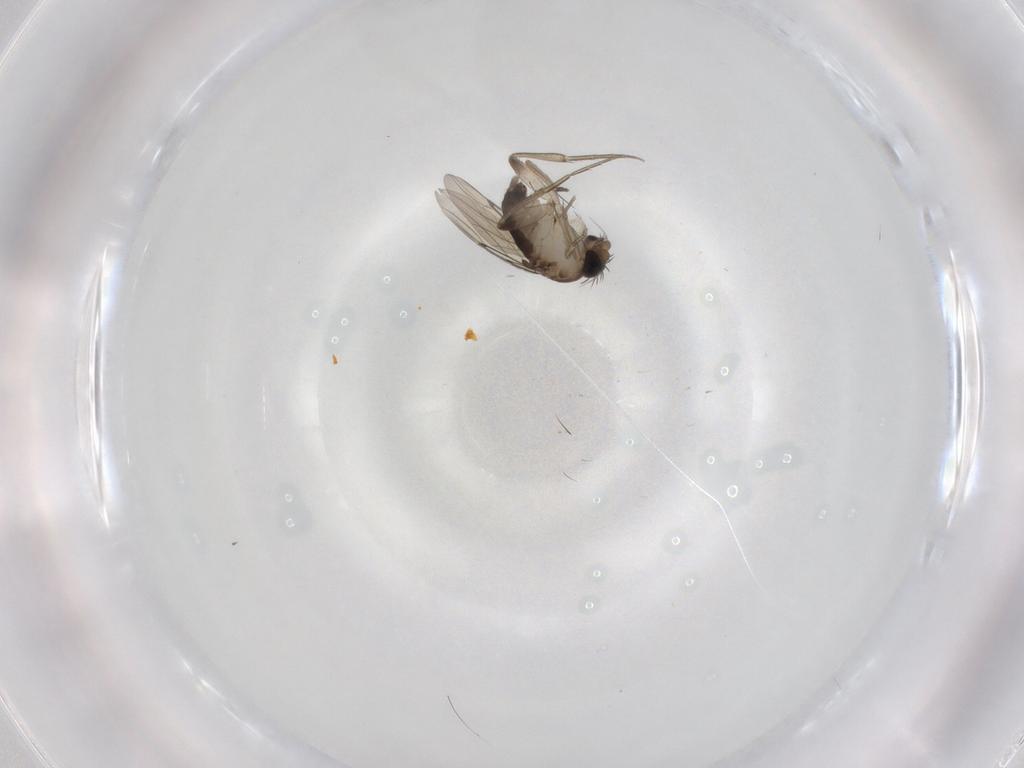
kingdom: Animalia
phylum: Arthropoda
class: Insecta
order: Diptera
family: Phoridae
